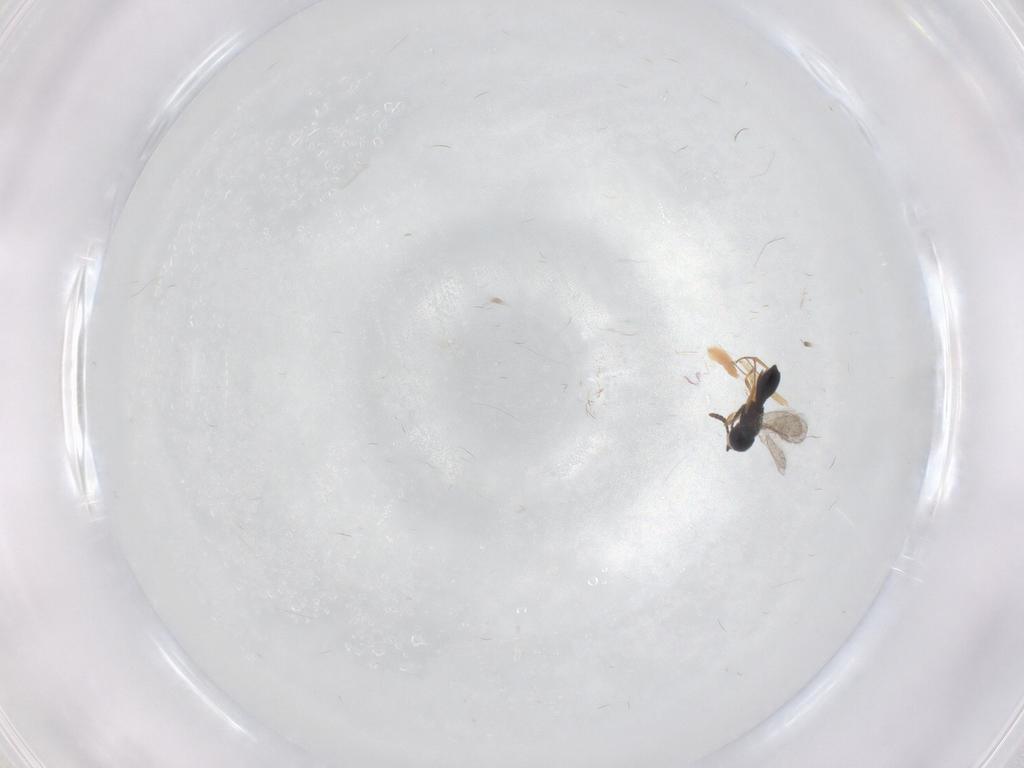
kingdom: Animalia
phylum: Arthropoda
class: Insecta
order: Hymenoptera
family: Scelionidae
